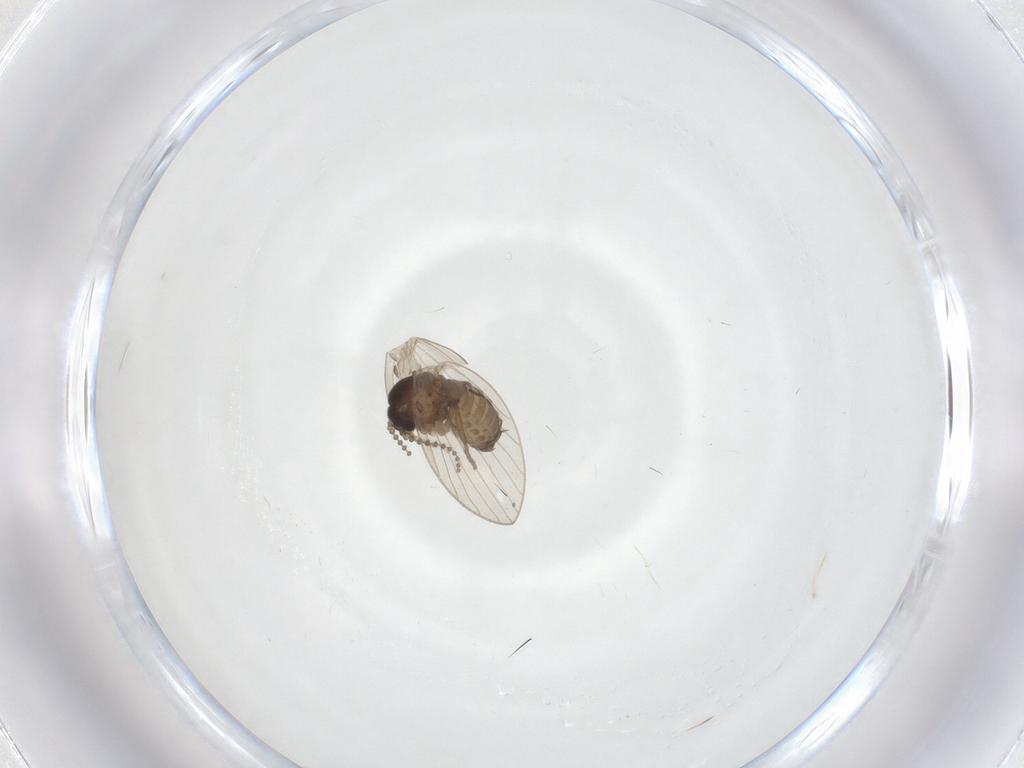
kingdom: Animalia
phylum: Arthropoda
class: Insecta
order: Diptera
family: Psychodidae
